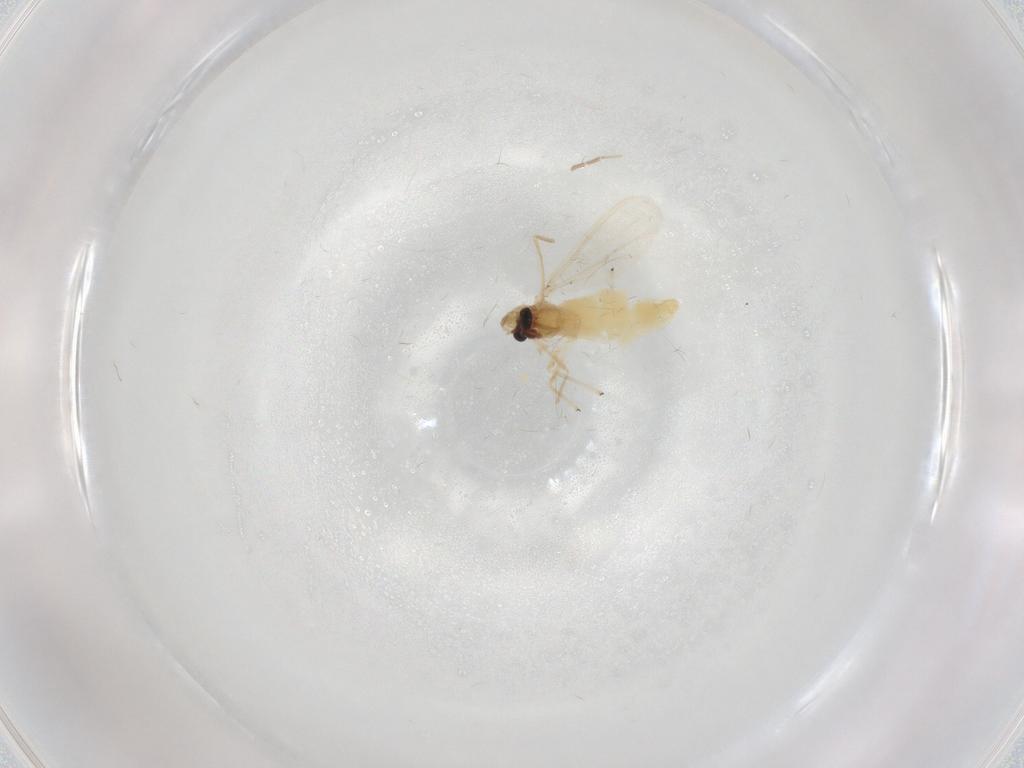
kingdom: Animalia
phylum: Arthropoda
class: Insecta
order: Diptera
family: Chironomidae
